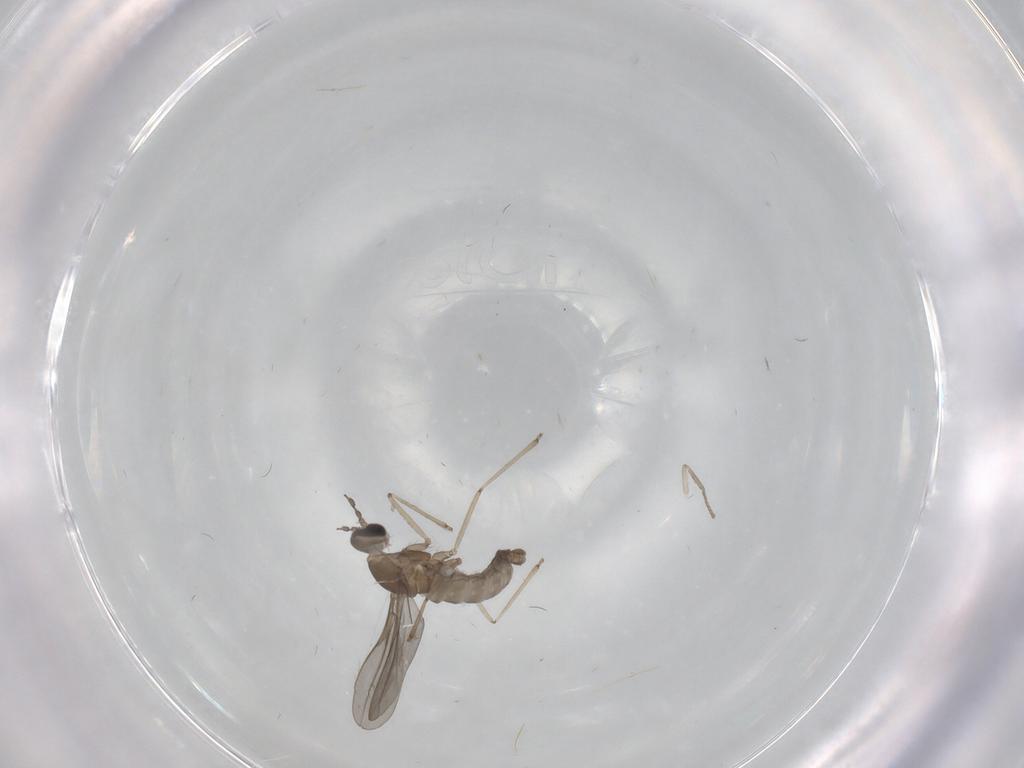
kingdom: Animalia
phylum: Arthropoda
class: Insecta
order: Diptera
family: Cecidomyiidae
